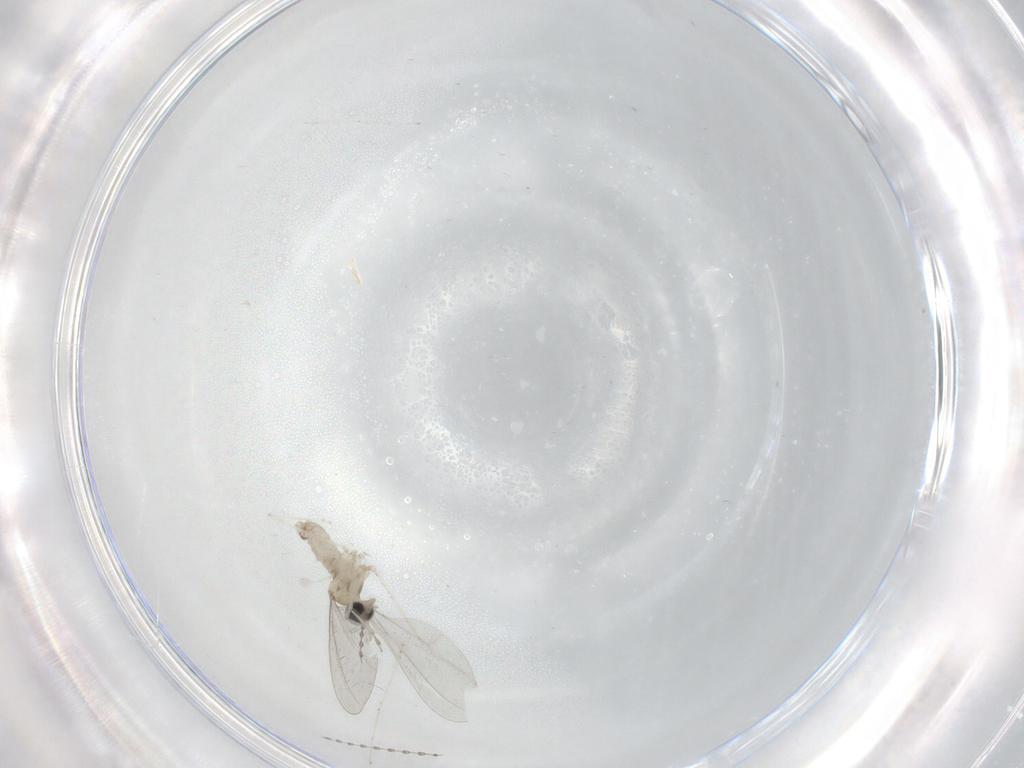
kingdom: Animalia
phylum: Arthropoda
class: Insecta
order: Diptera
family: Cecidomyiidae
